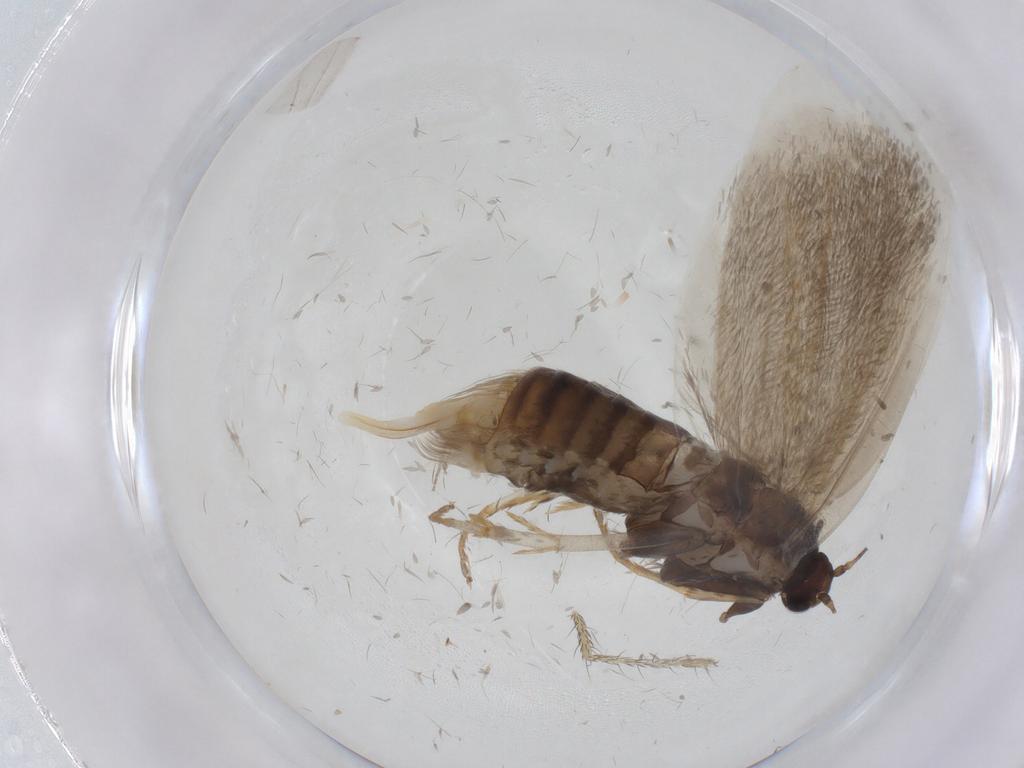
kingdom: Animalia
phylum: Arthropoda
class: Insecta
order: Lepidoptera
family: Psychidae
